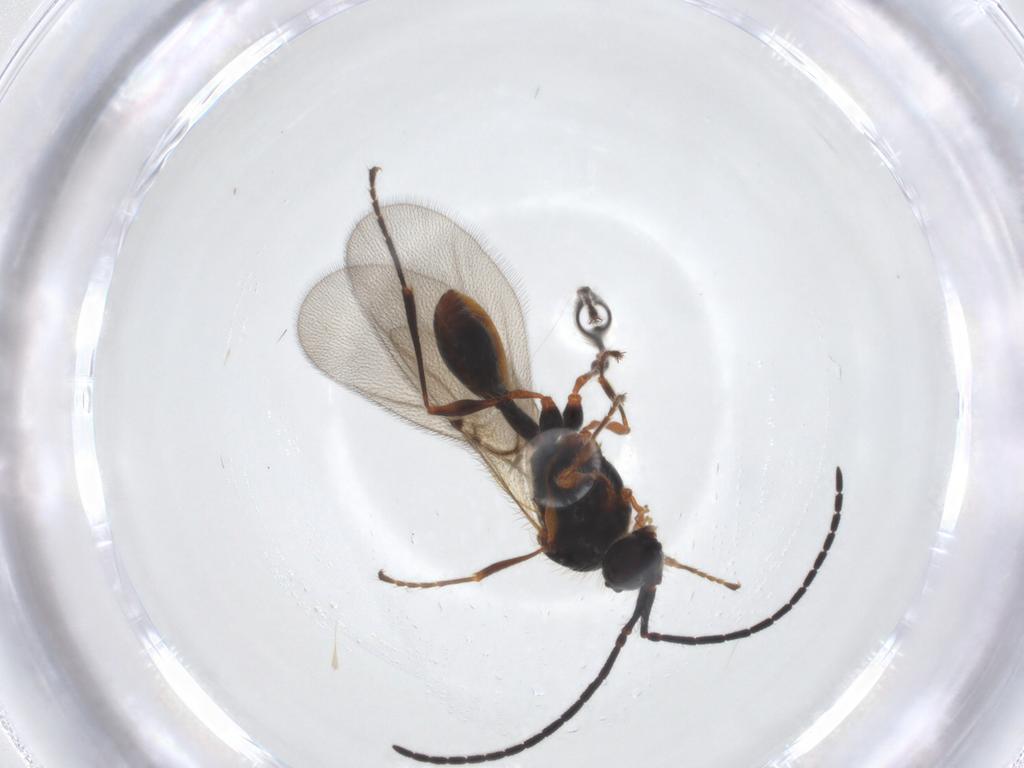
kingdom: Animalia
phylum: Arthropoda
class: Insecta
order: Hymenoptera
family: Diapriidae
